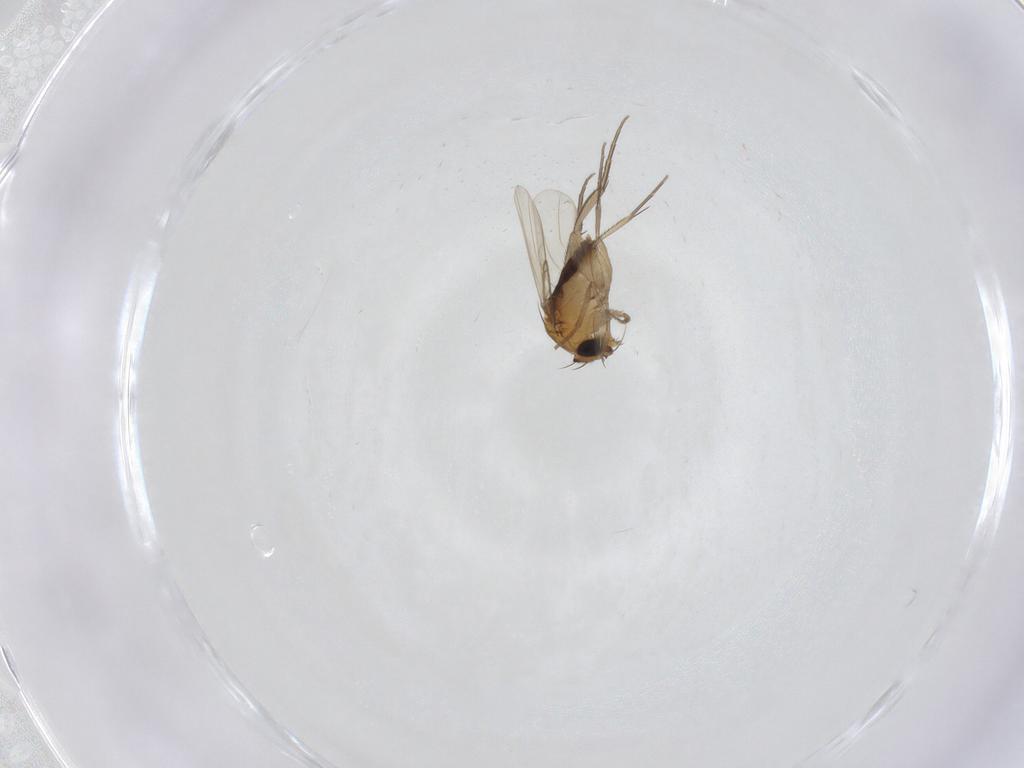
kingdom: Animalia
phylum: Arthropoda
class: Insecta
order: Diptera
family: Phoridae
